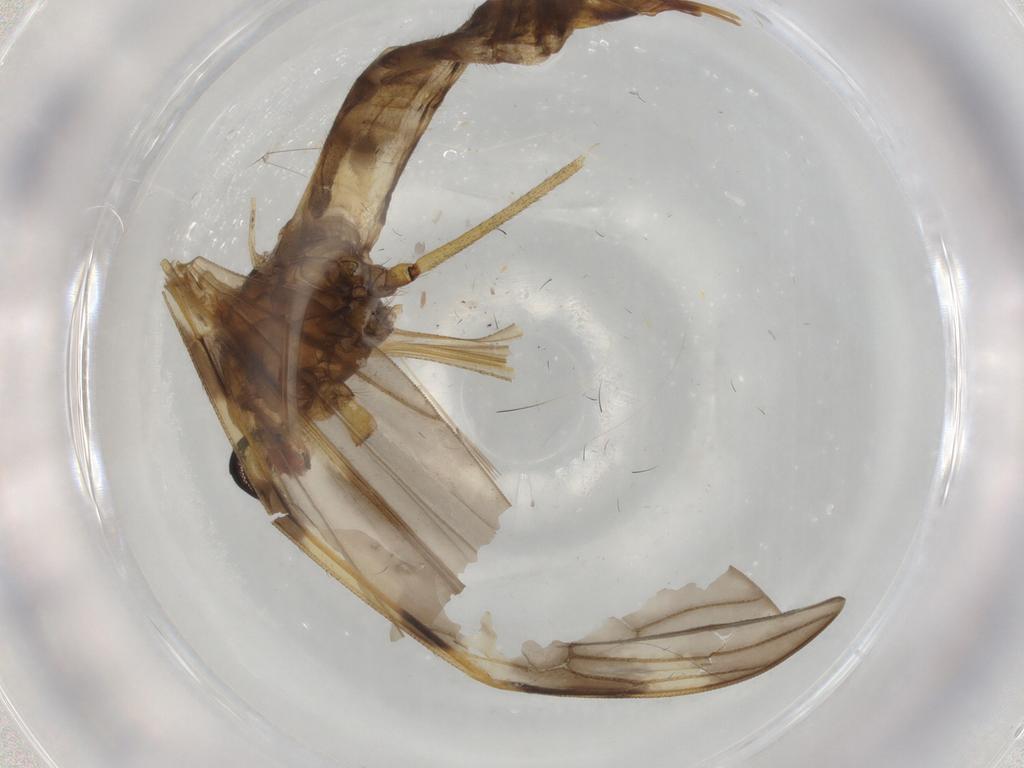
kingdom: Animalia
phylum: Arthropoda
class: Insecta
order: Diptera
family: Tipulidae
